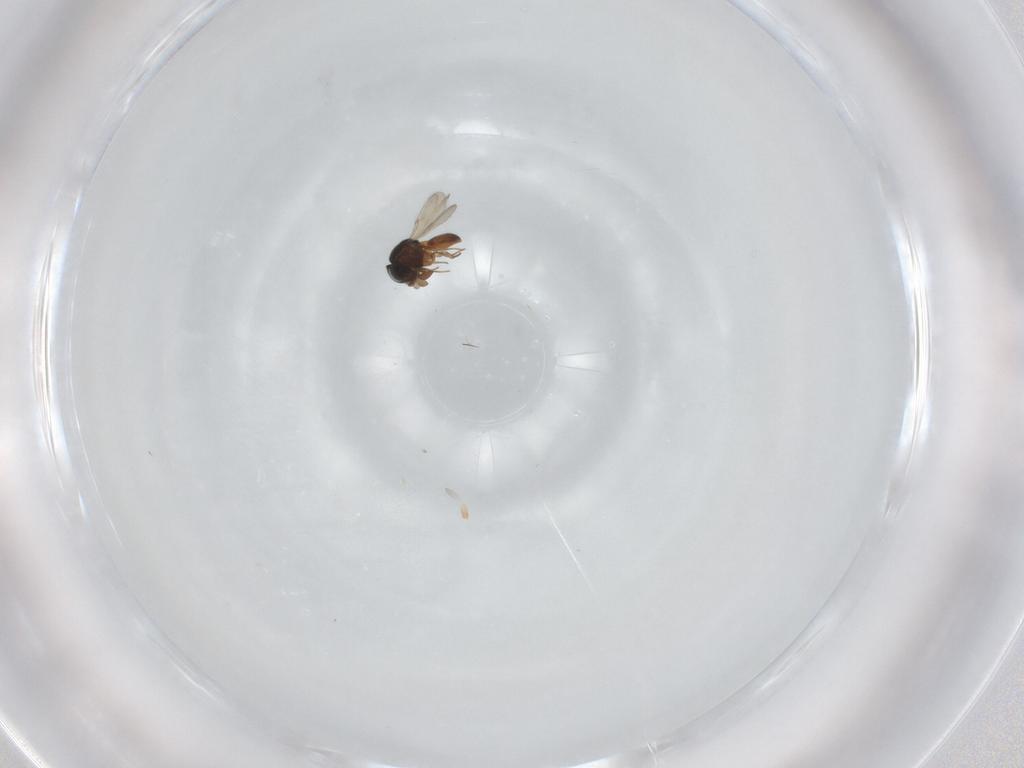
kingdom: Animalia
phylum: Arthropoda
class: Insecta
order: Hymenoptera
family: Scelionidae
